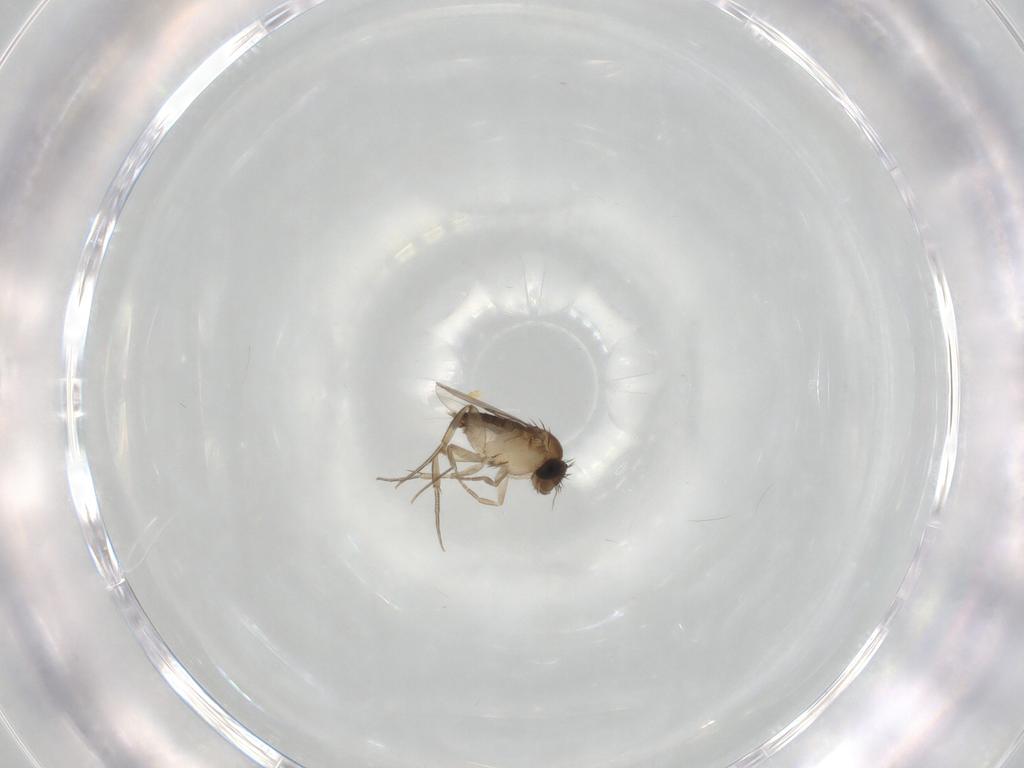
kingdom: Animalia
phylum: Arthropoda
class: Insecta
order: Diptera
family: Phoridae
